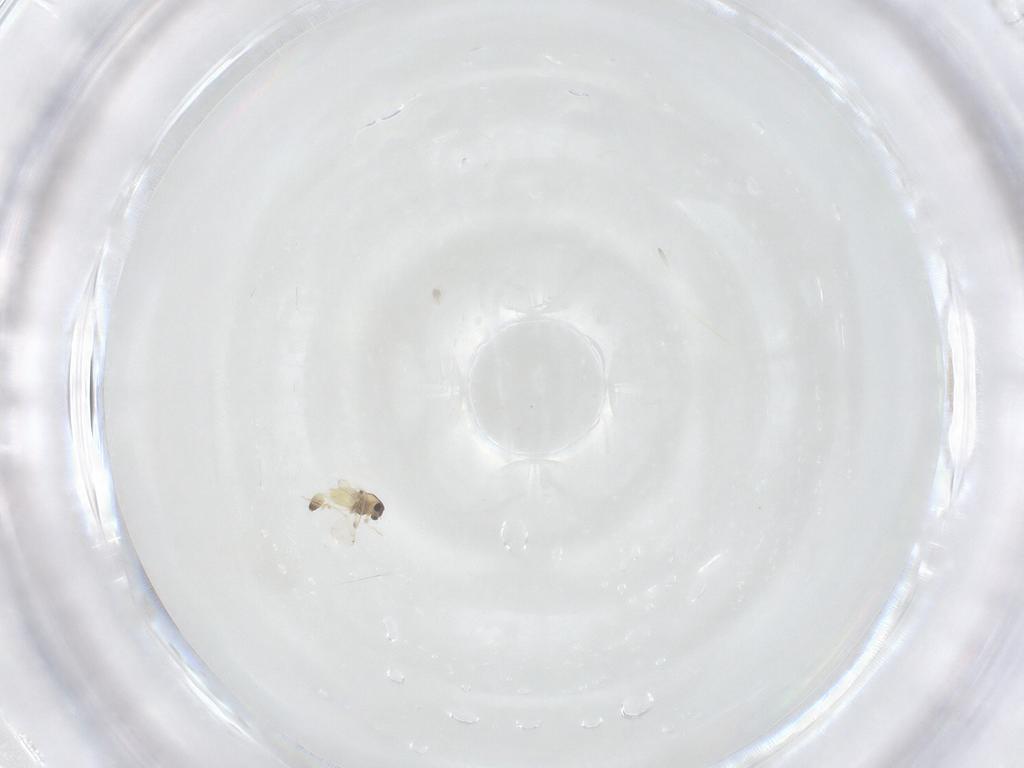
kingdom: Animalia
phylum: Arthropoda
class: Insecta
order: Diptera
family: Chironomidae
